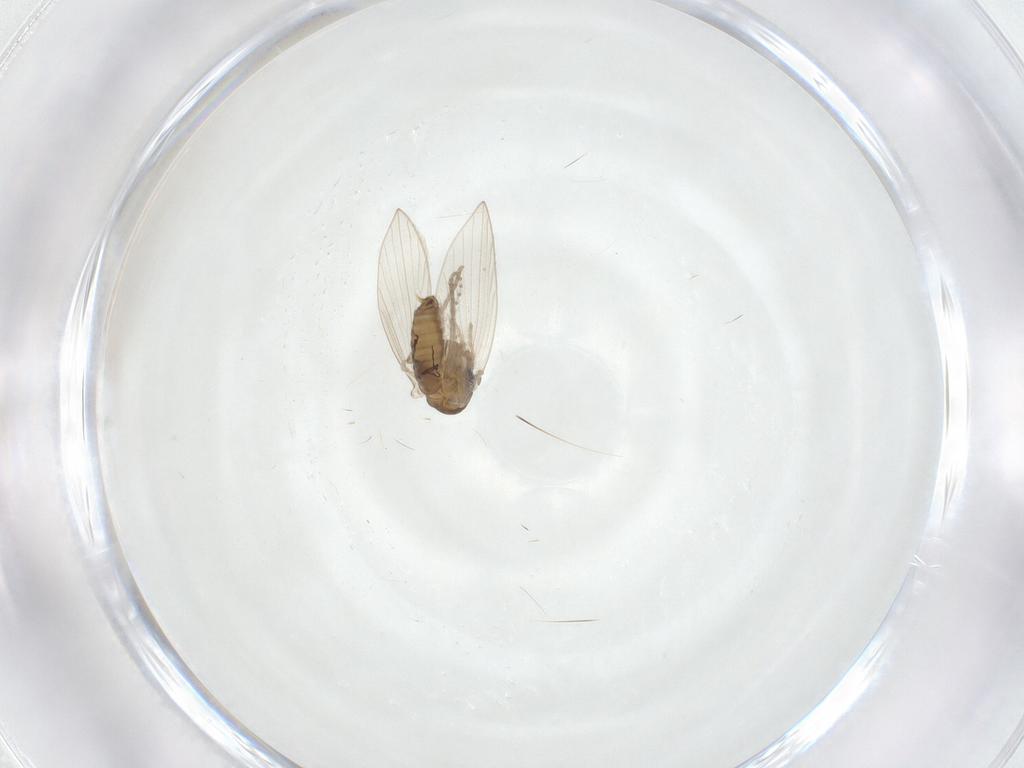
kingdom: Animalia
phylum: Arthropoda
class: Insecta
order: Diptera
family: Psychodidae
